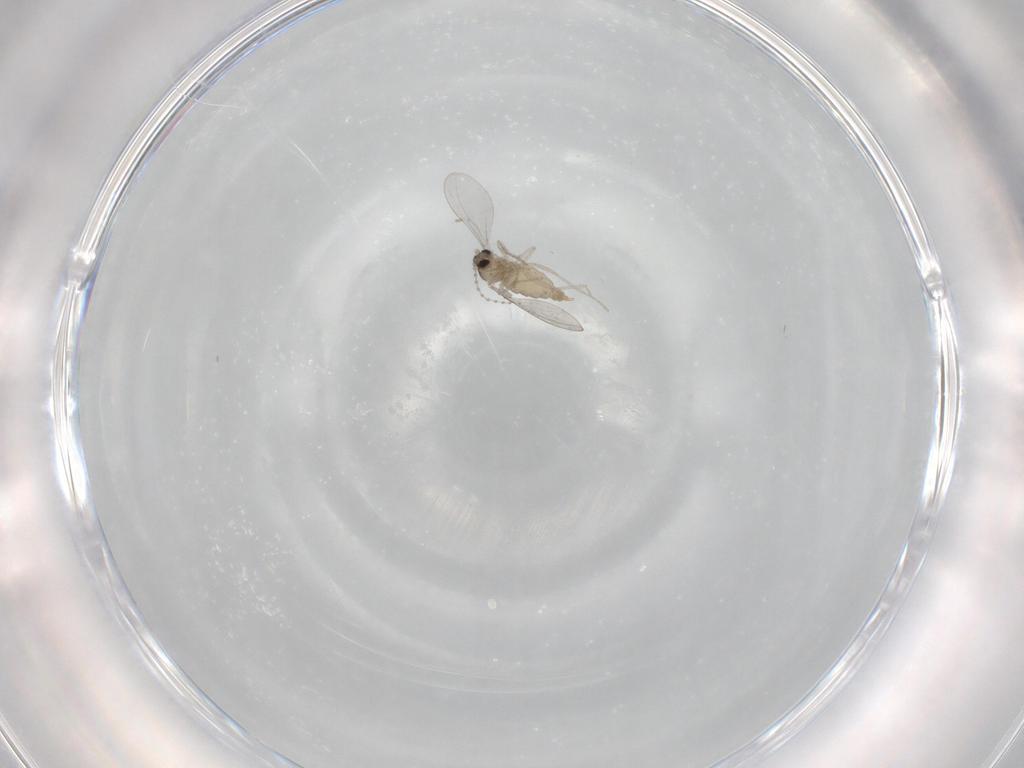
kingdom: Animalia
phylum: Arthropoda
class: Insecta
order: Diptera
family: Cecidomyiidae
